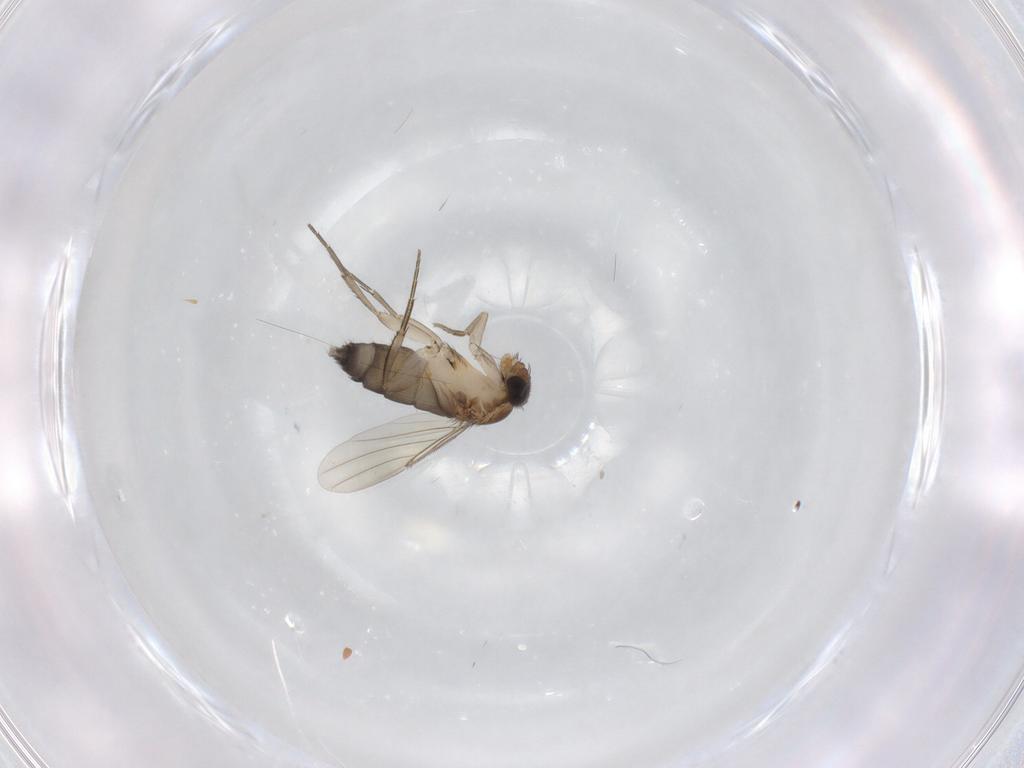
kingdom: Animalia
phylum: Arthropoda
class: Insecta
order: Diptera
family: Phoridae
